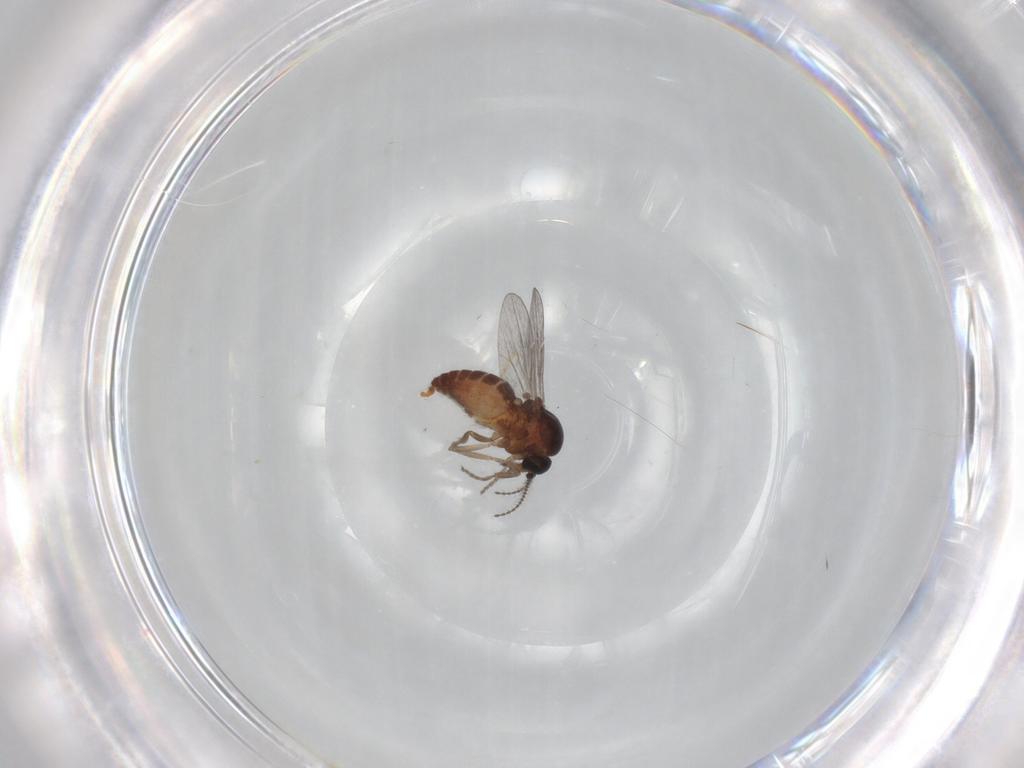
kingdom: Animalia
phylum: Arthropoda
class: Insecta
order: Diptera
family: Ceratopogonidae
